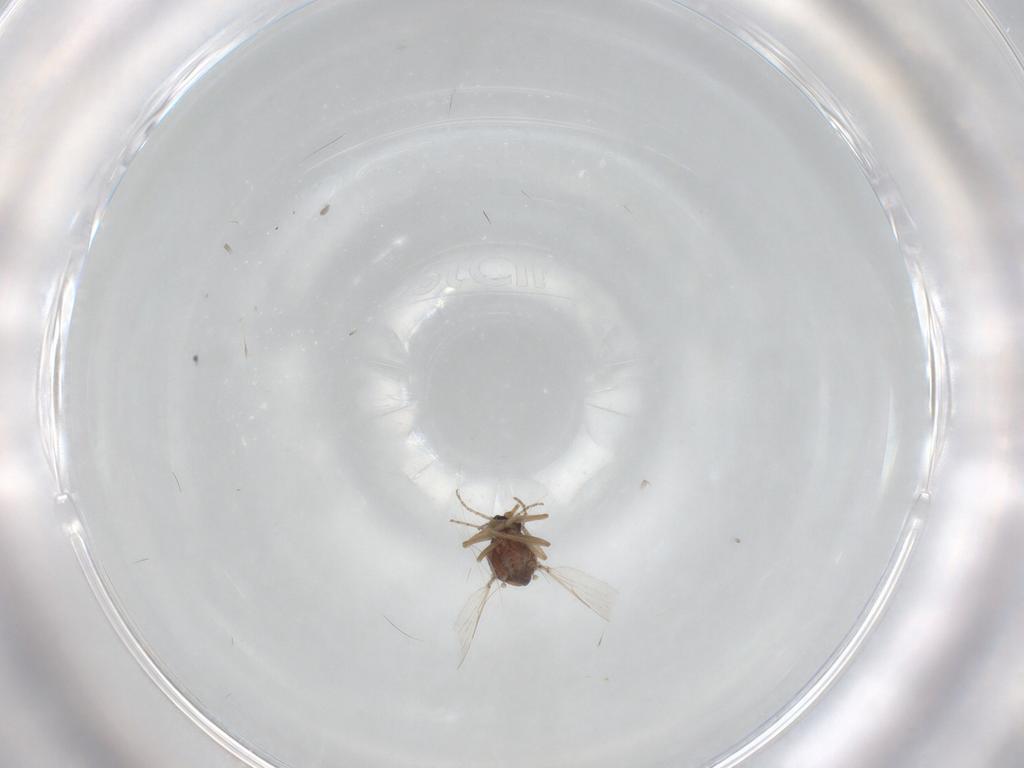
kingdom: Animalia
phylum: Arthropoda
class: Insecta
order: Diptera
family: Ceratopogonidae
